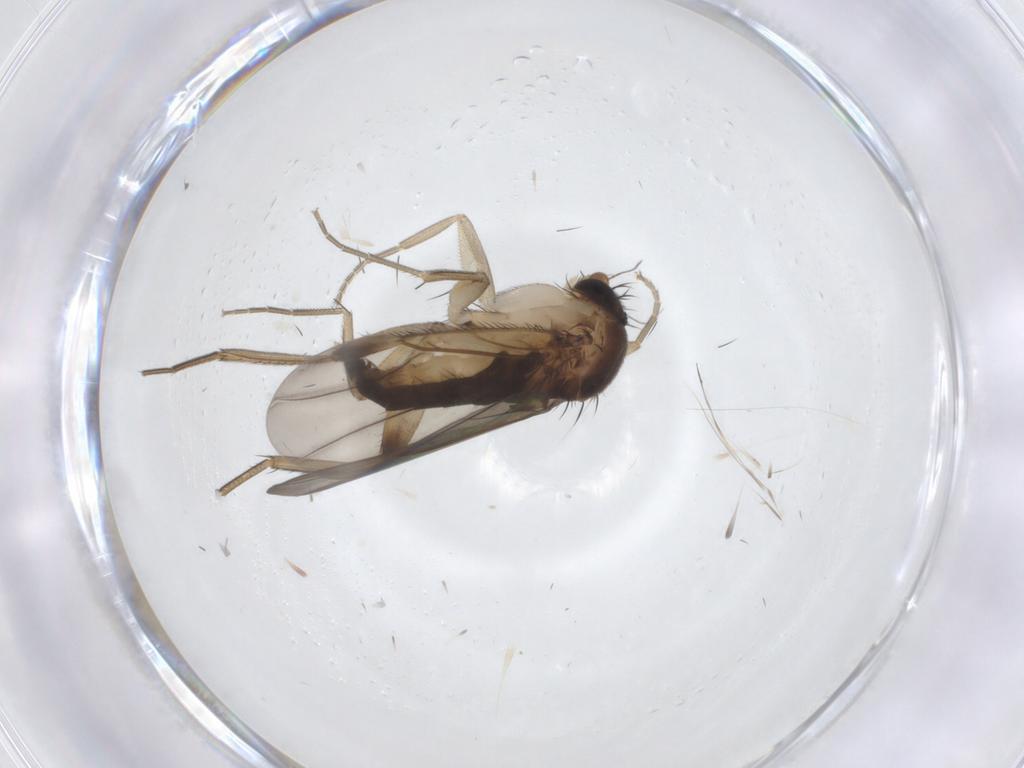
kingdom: Animalia
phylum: Arthropoda
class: Insecta
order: Diptera
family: Phoridae
